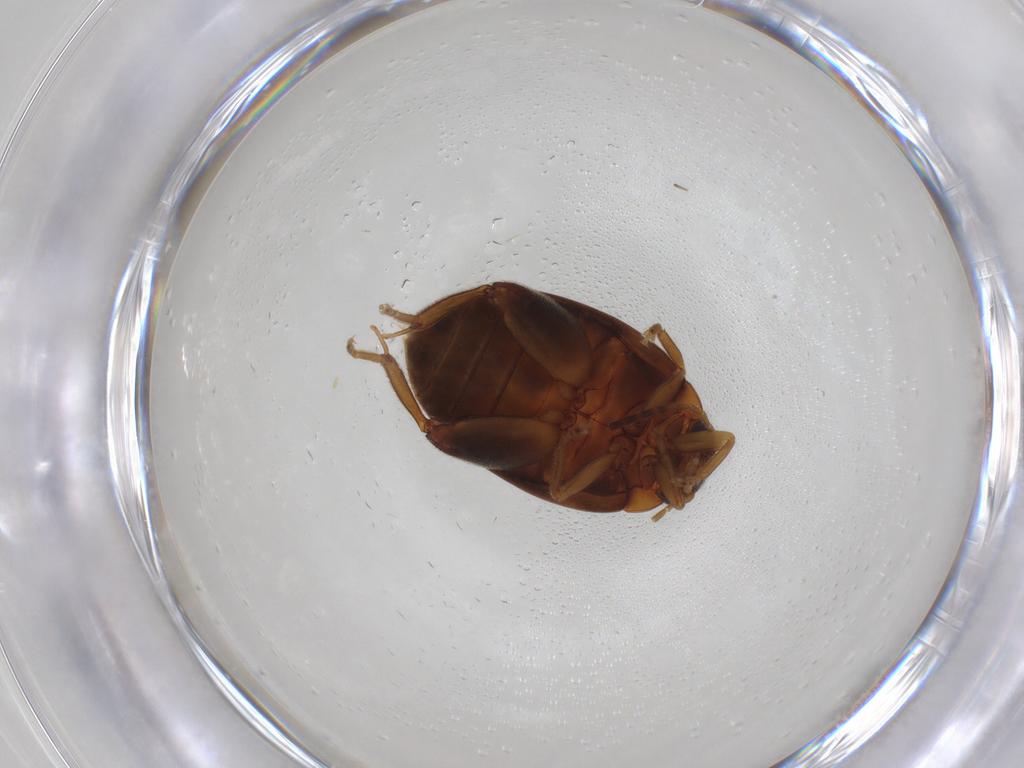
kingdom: Animalia
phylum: Arthropoda
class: Insecta
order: Coleoptera
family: Scirtidae
